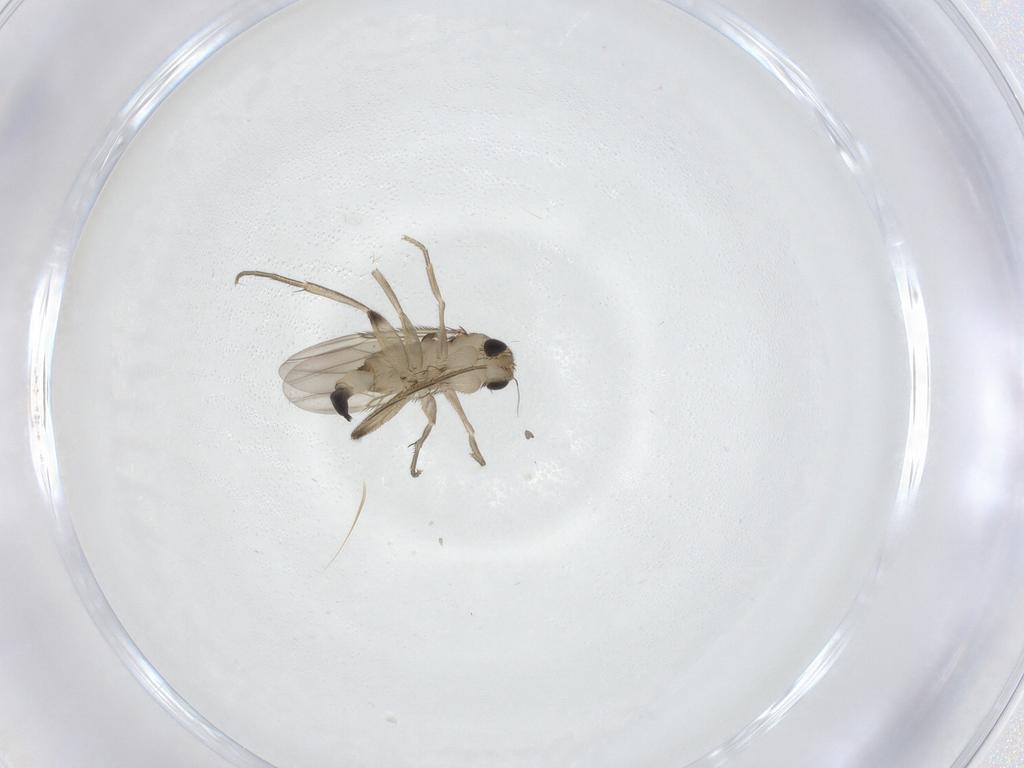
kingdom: Animalia
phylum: Arthropoda
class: Insecta
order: Diptera
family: Phoridae
